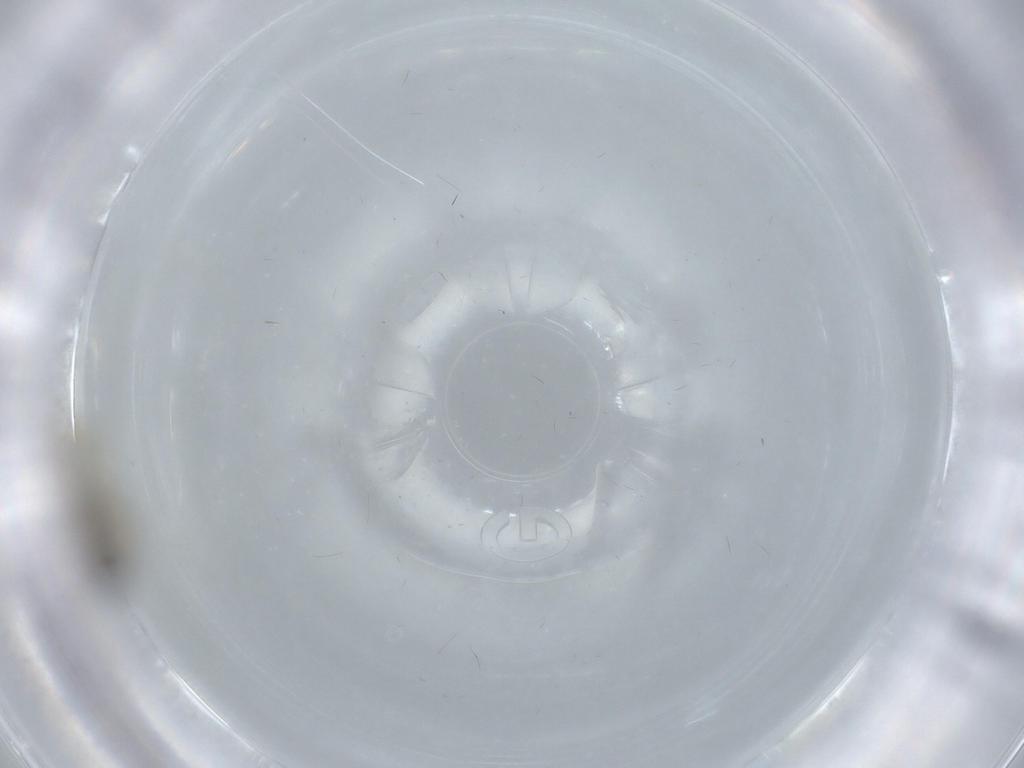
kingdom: Animalia
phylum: Arthropoda
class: Insecta
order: Diptera
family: Cecidomyiidae
